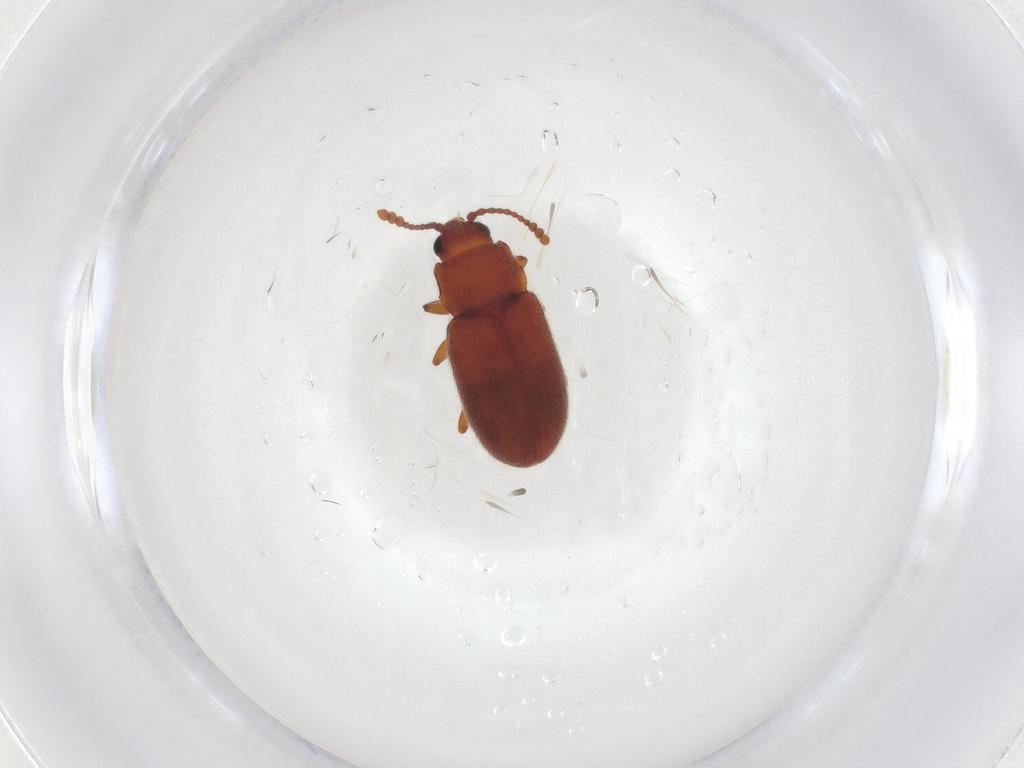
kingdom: Animalia
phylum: Arthropoda
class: Insecta
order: Coleoptera
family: Cryptophagidae
